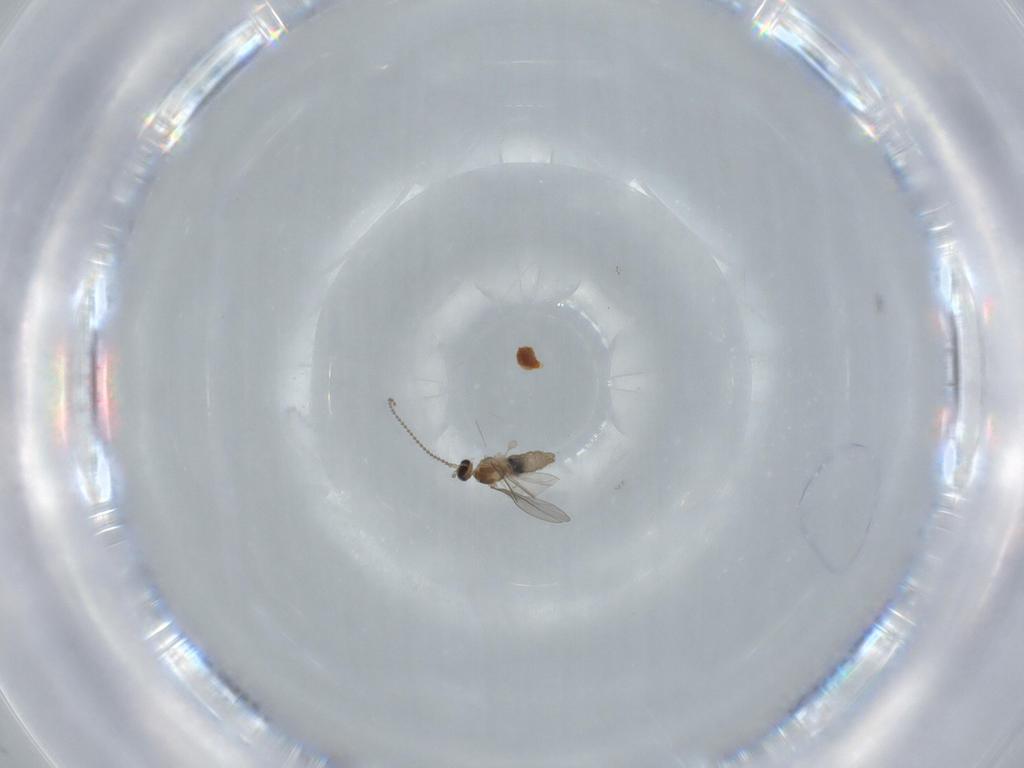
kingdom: Animalia
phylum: Arthropoda
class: Insecta
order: Diptera
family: Cecidomyiidae
